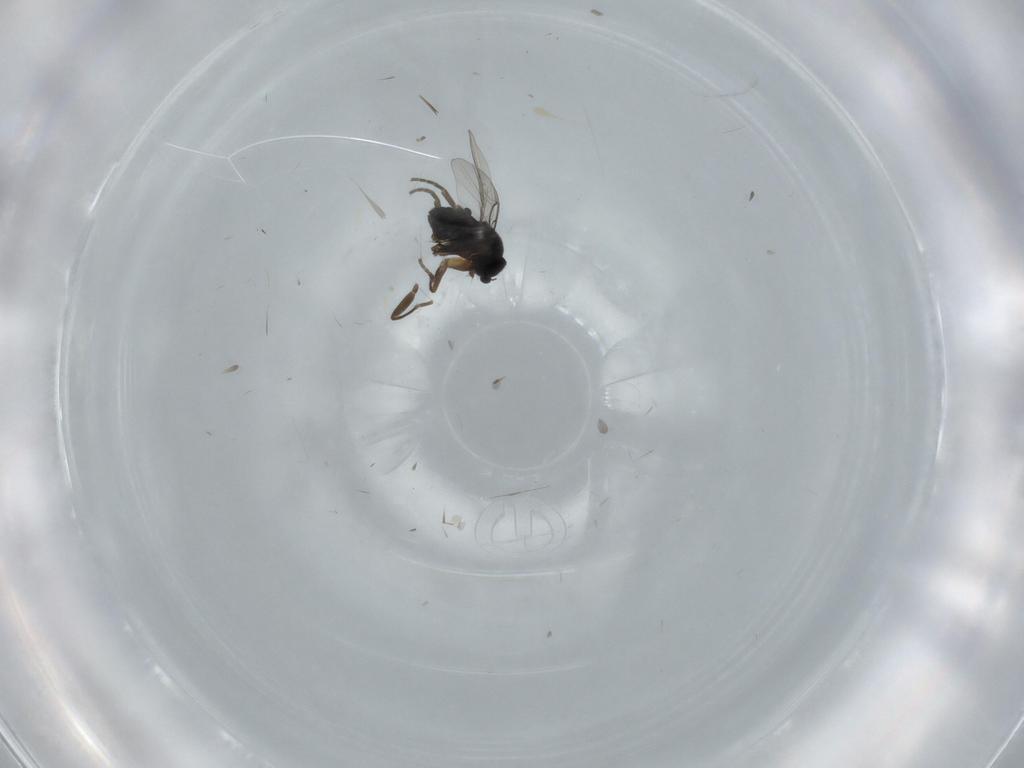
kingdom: Animalia
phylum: Arthropoda
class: Insecta
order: Diptera
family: Phoridae
